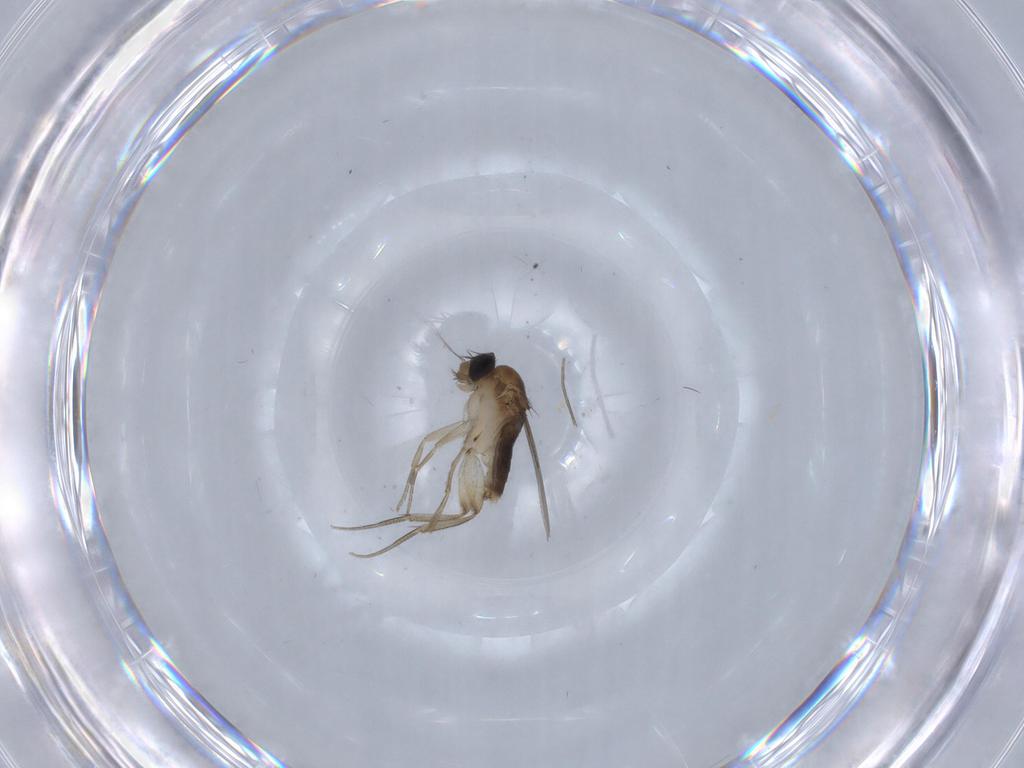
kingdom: Animalia
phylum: Arthropoda
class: Insecta
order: Diptera
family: Phoridae
